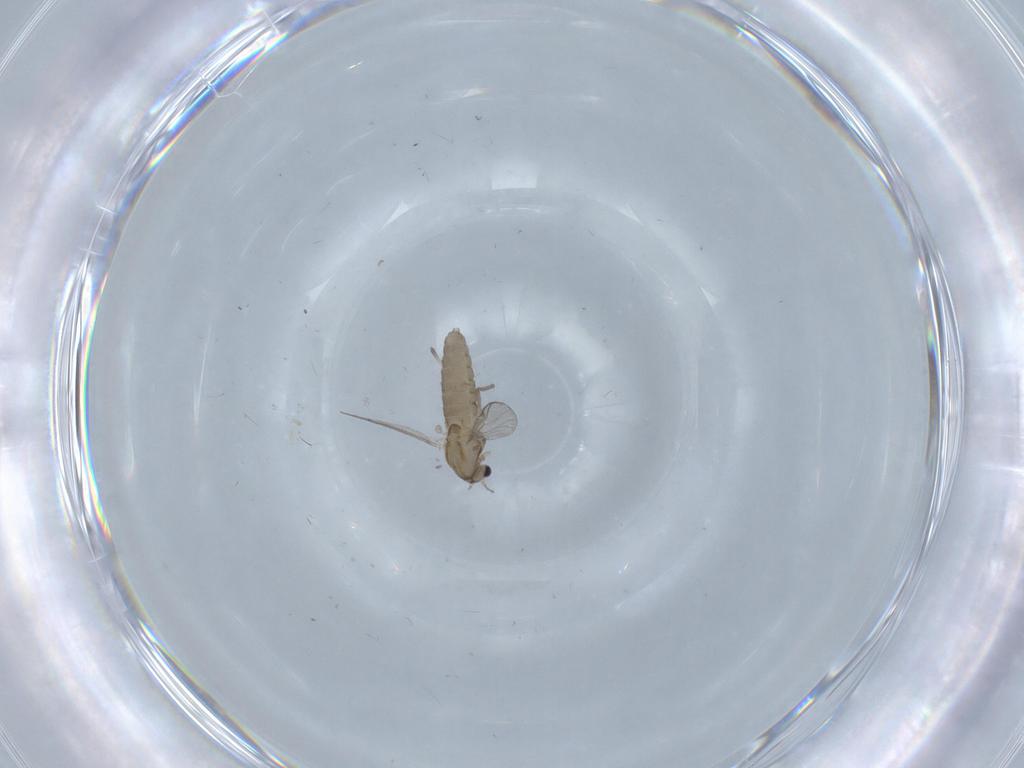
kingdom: Animalia
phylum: Arthropoda
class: Insecta
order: Diptera
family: Chironomidae
